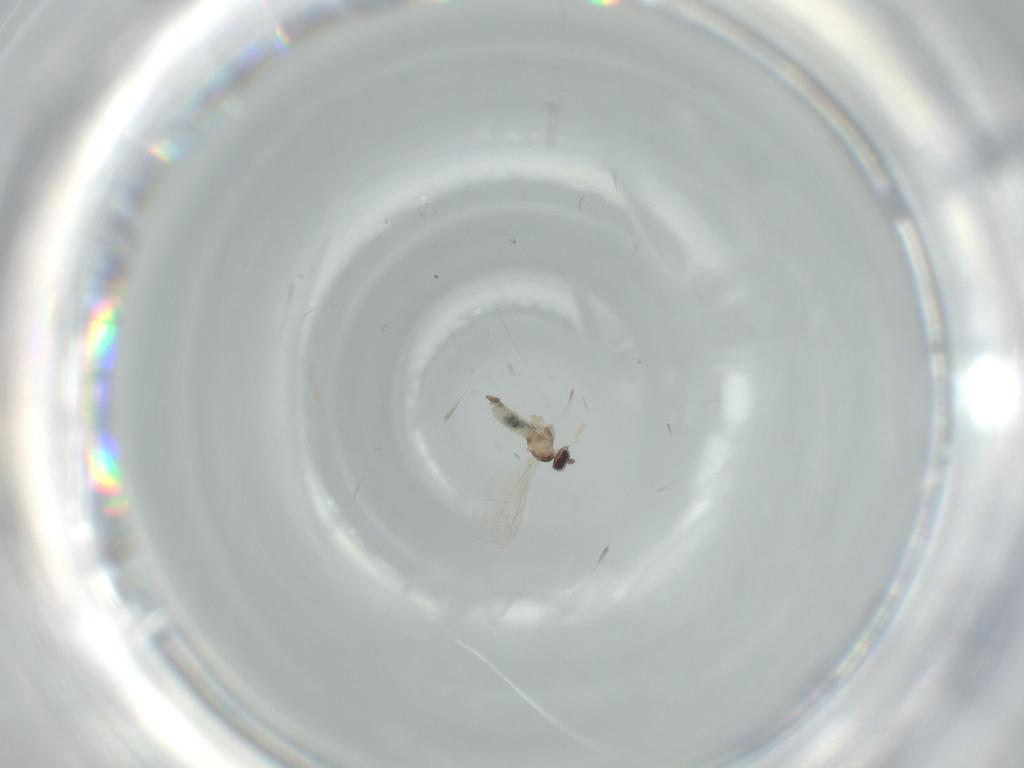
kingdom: Animalia
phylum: Arthropoda
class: Insecta
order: Diptera
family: Cecidomyiidae
